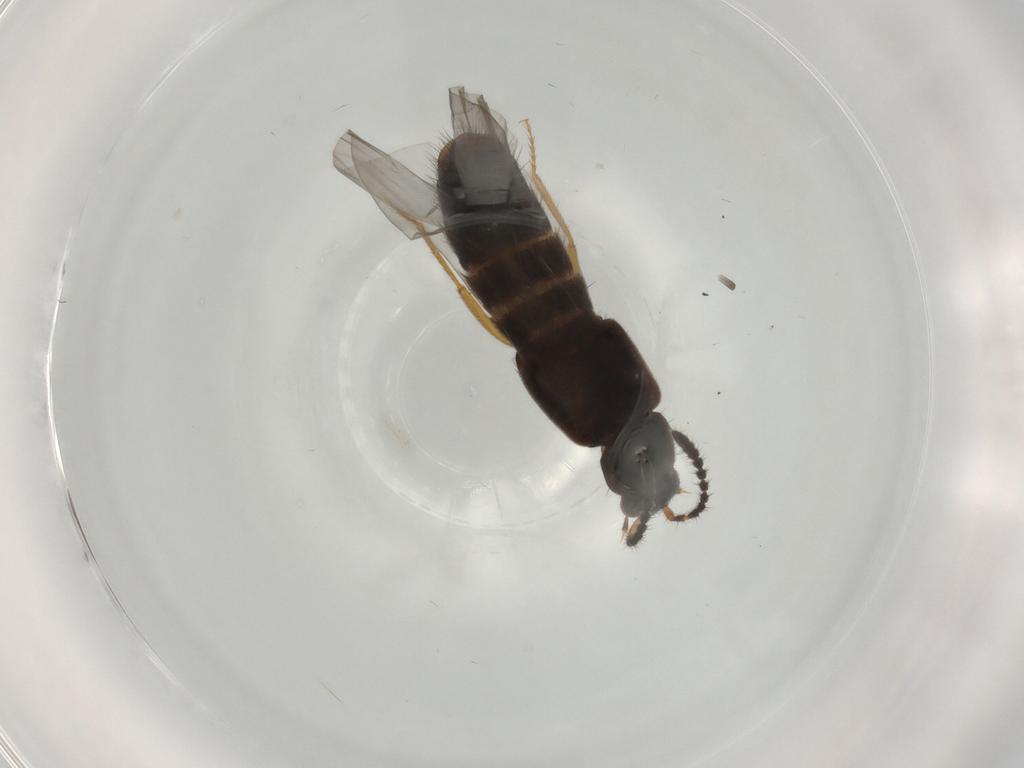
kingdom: Animalia
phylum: Arthropoda
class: Insecta
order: Coleoptera
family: Staphylinidae
